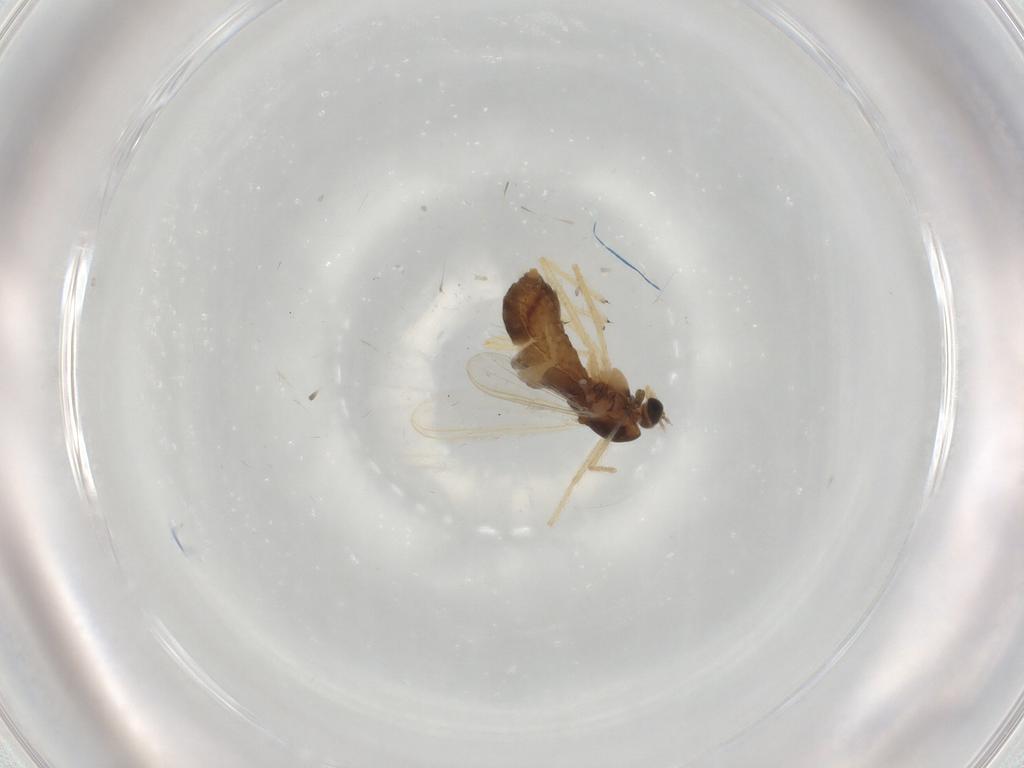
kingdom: Animalia
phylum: Arthropoda
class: Insecta
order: Diptera
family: Chironomidae
